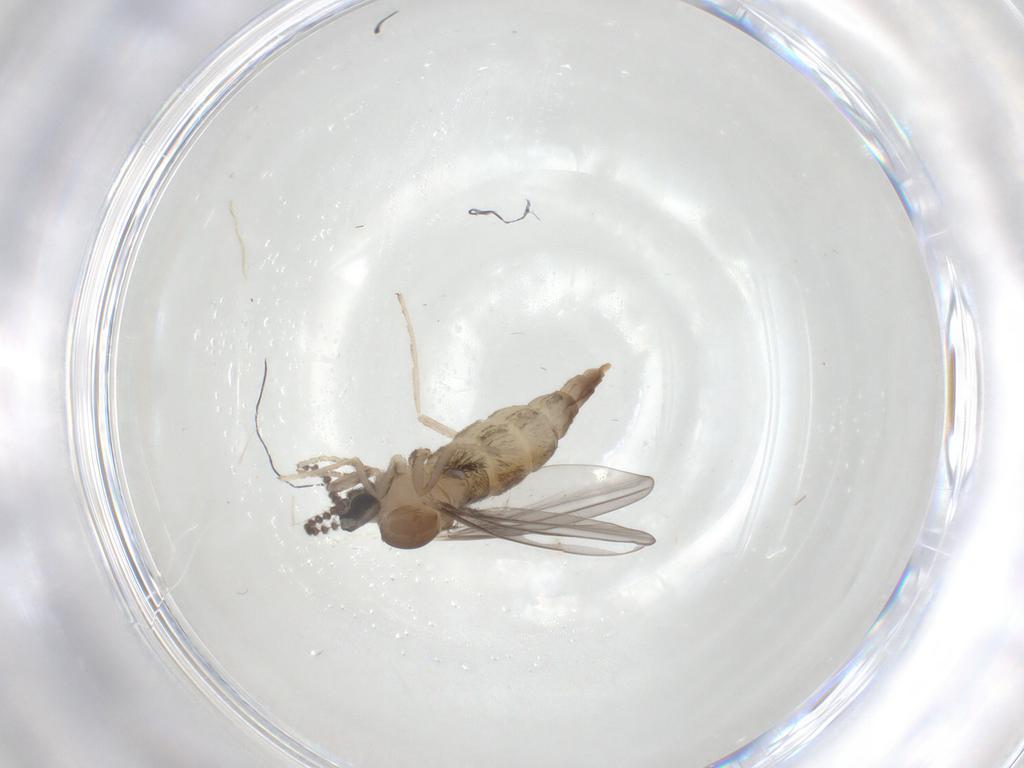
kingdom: Animalia
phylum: Arthropoda
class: Insecta
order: Diptera
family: Cecidomyiidae
